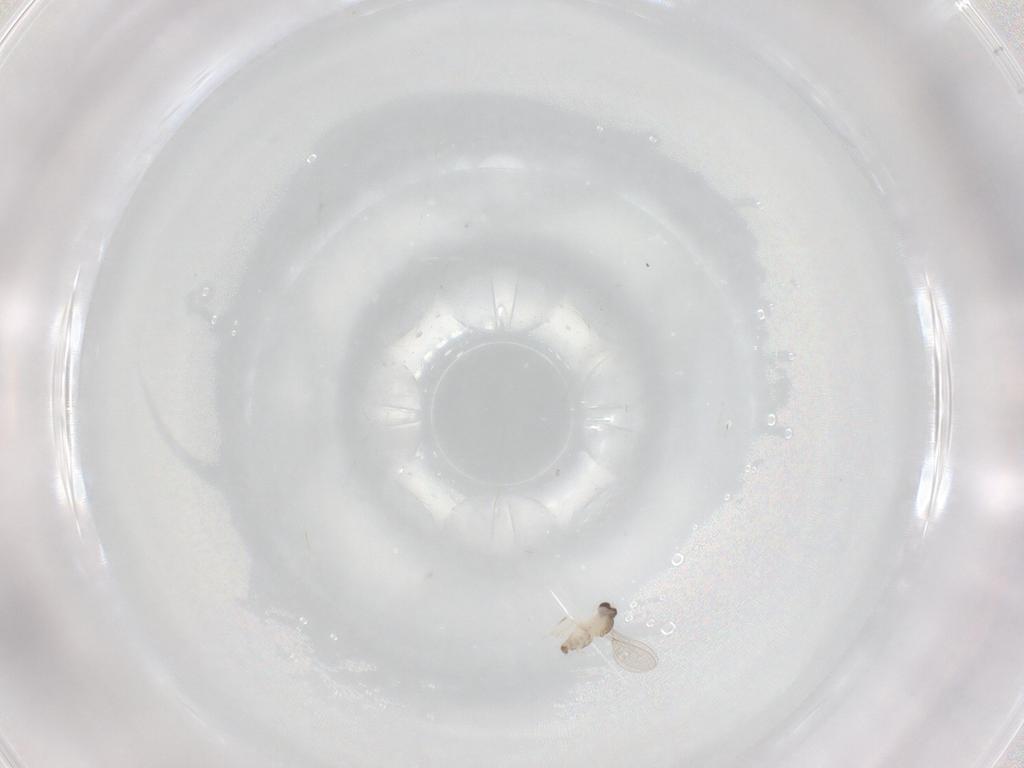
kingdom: Animalia
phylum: Arthropoda
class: Insecta
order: Diptera
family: Cecidomyiidae
